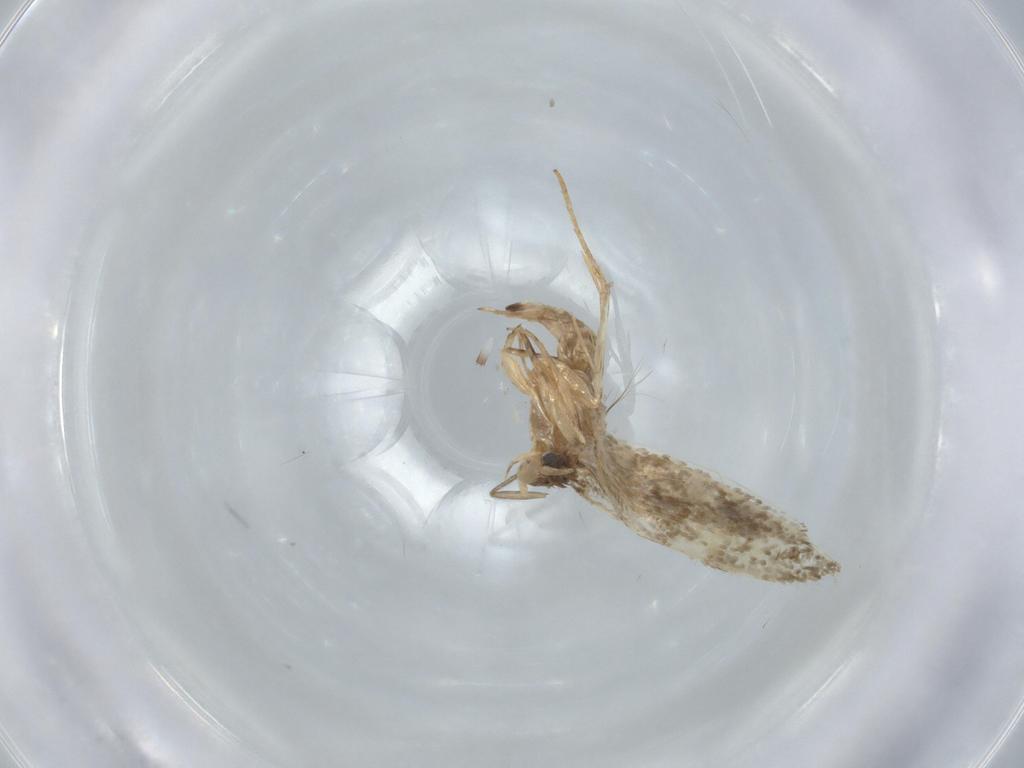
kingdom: Animalia
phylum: Arthropoda
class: Insecta
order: Lepidoptera
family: Tineidae
